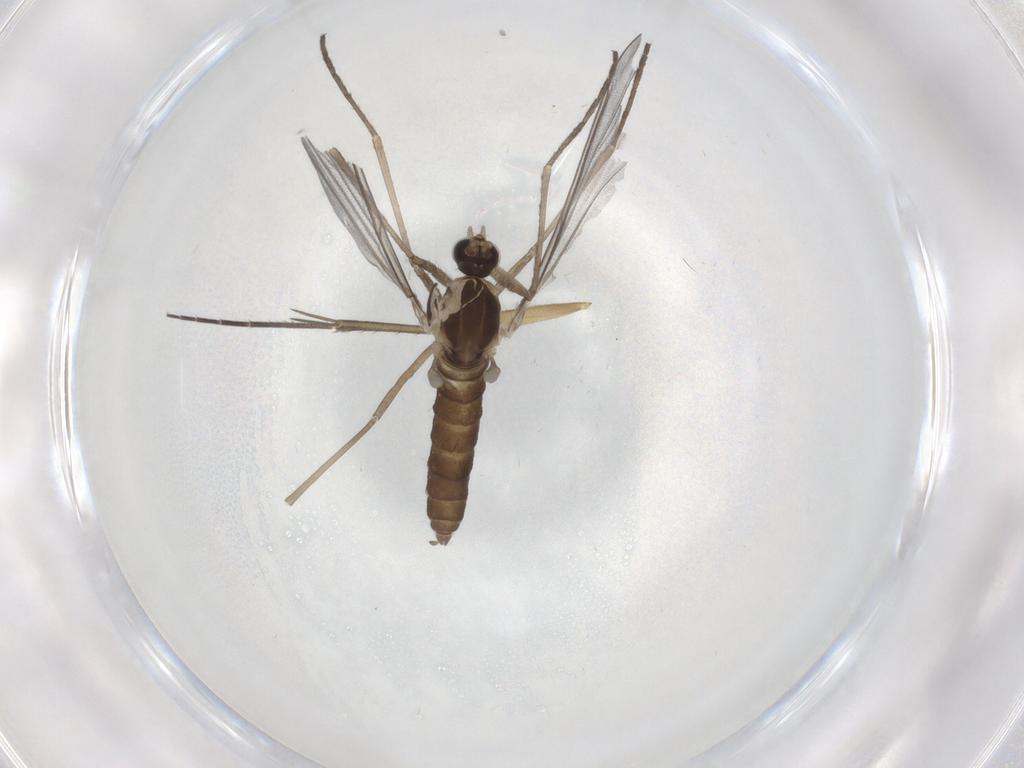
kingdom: Animalia
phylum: Arthropoda
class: Insecta
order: Diptera
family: Cecidomyiidae
